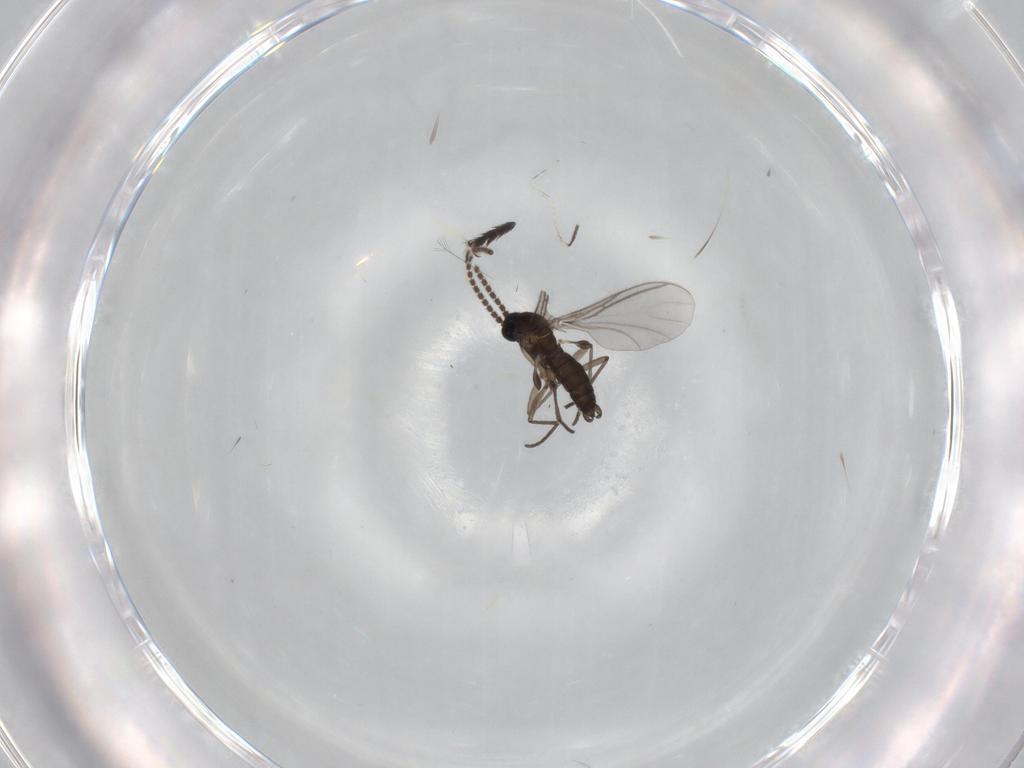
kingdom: Animalia
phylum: Arthropoda
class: Insecta
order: Diptera
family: Sciaridae
